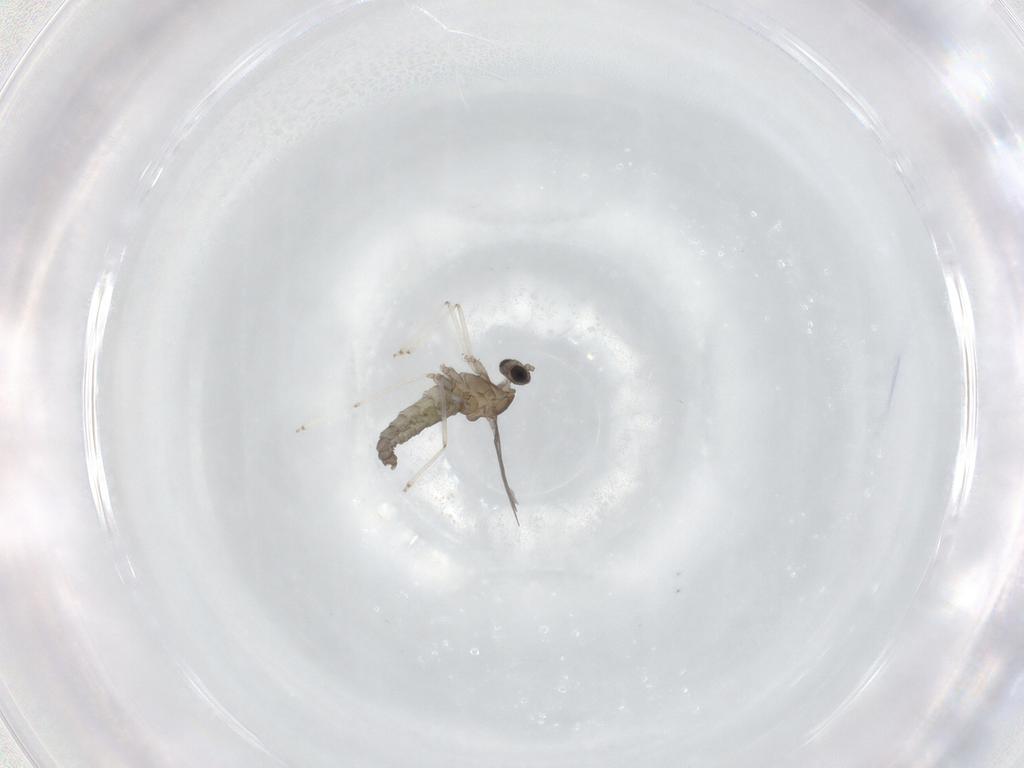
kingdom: Animalia
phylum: Arthropoda
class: Insecta
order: Diptera
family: Cecidomyiidae
